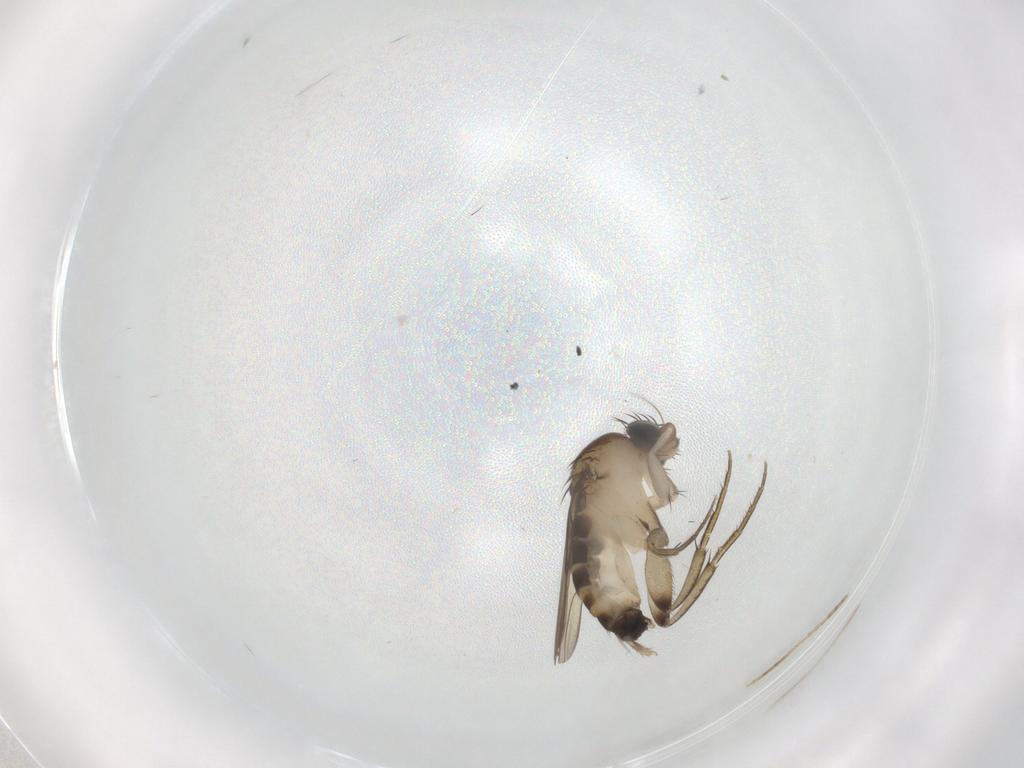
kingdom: Animalia
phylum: Arthropoda
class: Insecta
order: Diptera
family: Phoridae
